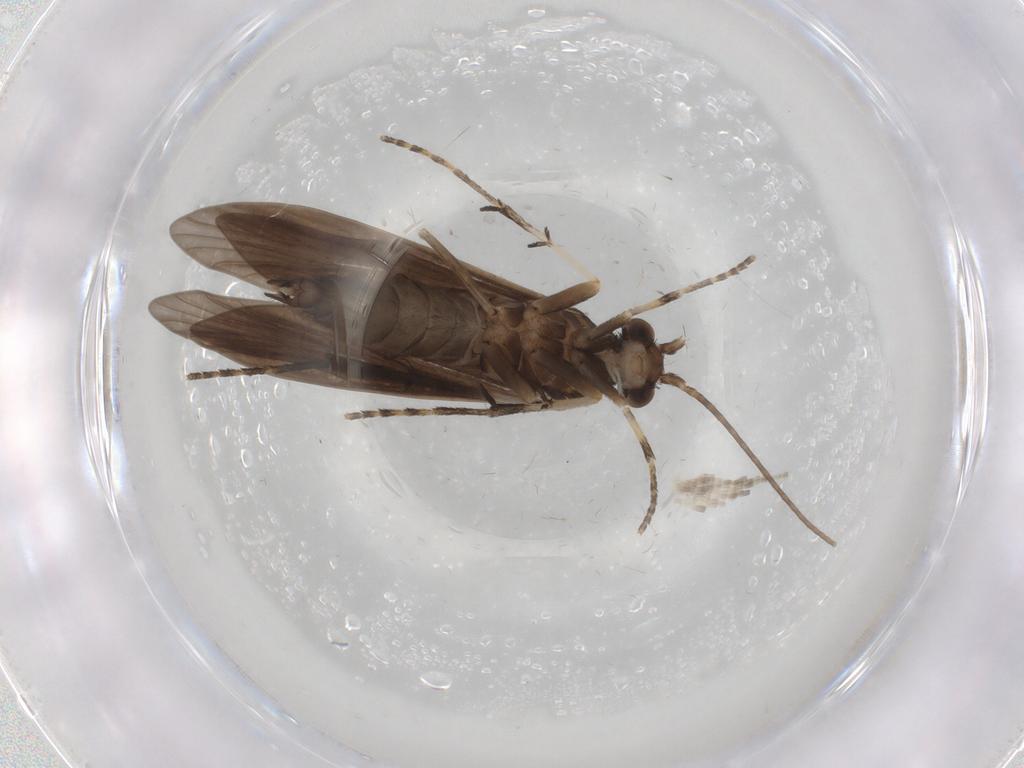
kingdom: Animalia
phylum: Arthropoda
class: Insecta
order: Trichoptera
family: Xiphocentronidae
